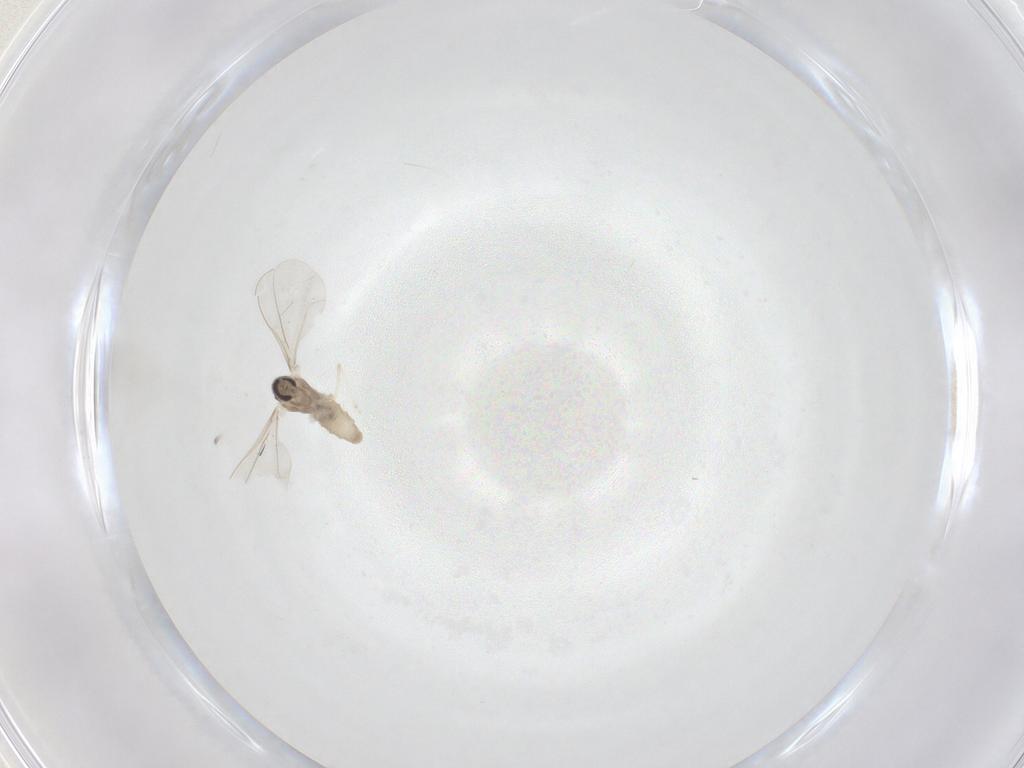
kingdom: Animalia
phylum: Arthropoda
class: Insecta
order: Diptera
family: Cecidomyiidae
